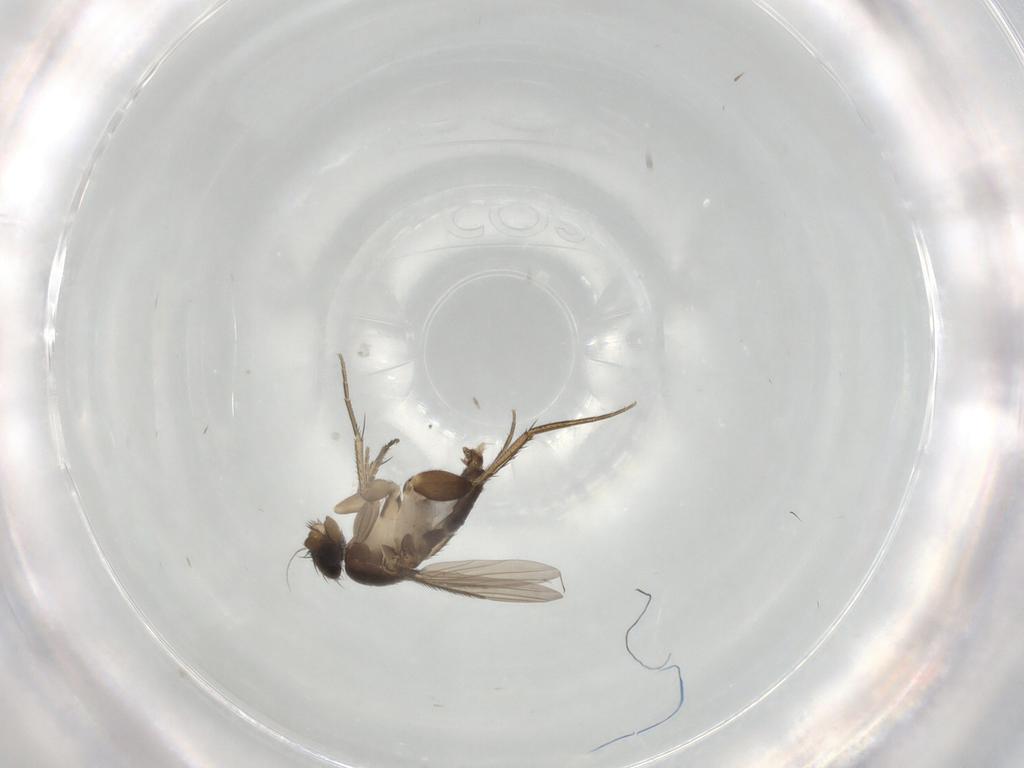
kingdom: Animalia
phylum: Arthropoda
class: Insecta
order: Diptera
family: Phoridae
